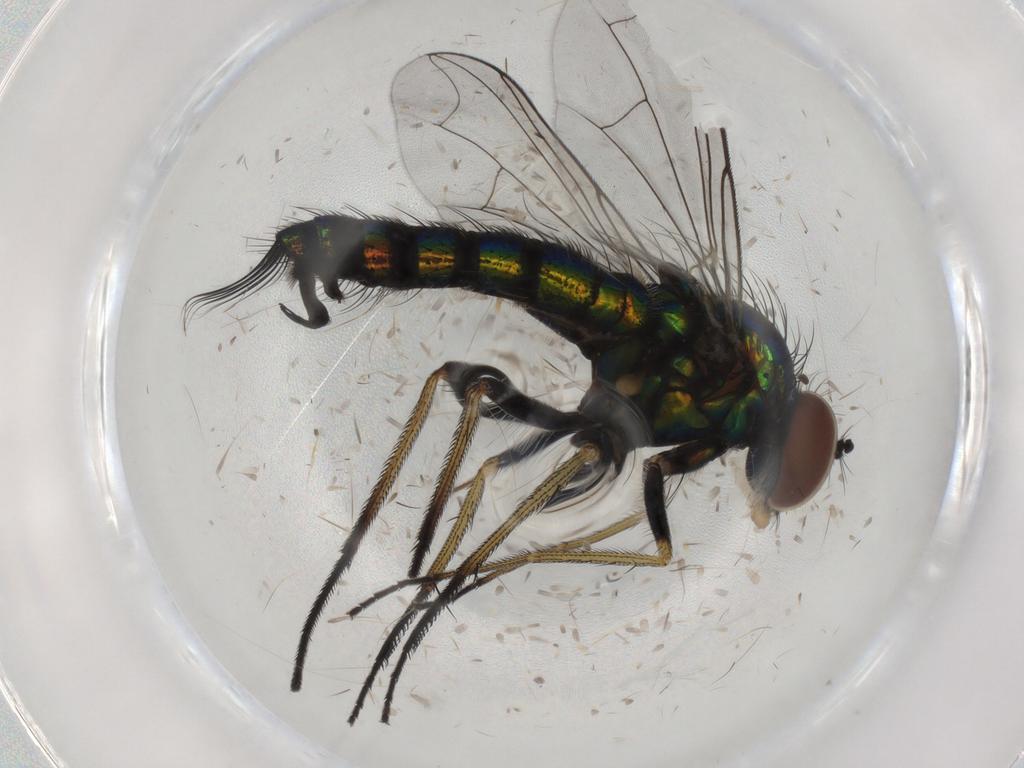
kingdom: Animalia
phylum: Arthropoda
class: Insecta
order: Diptera
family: Dolichopodidae
